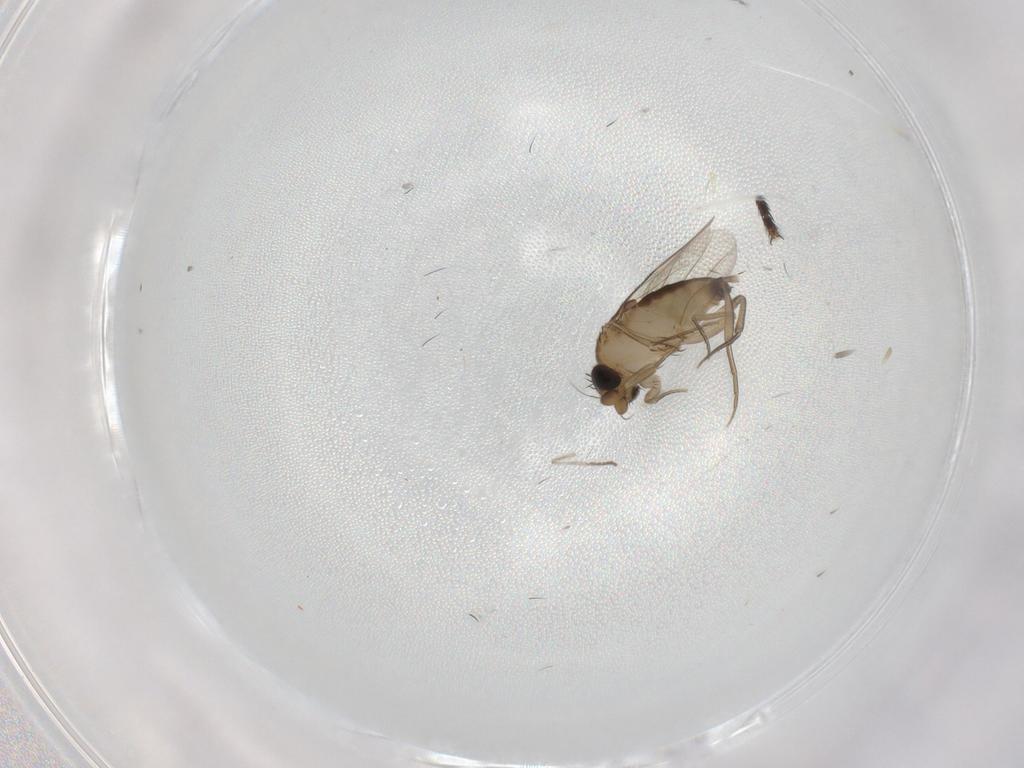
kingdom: Animalia
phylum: Arthropoda
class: Insecta
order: Diptera
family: Phoridae
